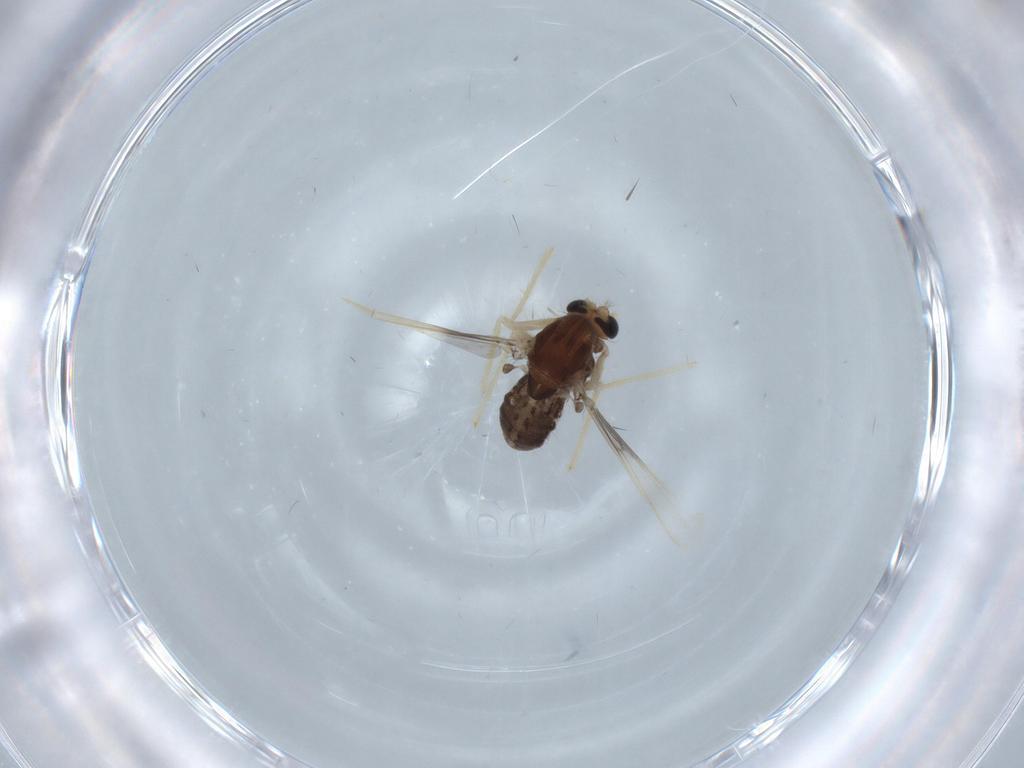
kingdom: Animalia
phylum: Arthropoda
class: Insecta
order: Diptera
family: Chironomidae
